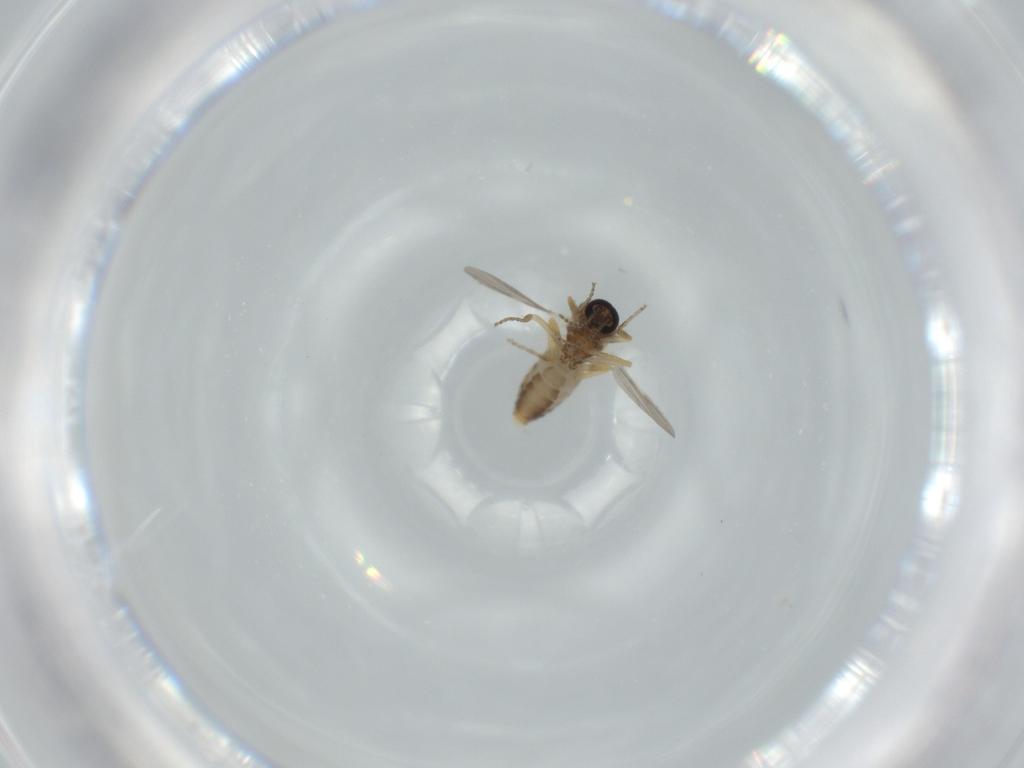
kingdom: Animalia
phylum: Arthropoda
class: Insecta
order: Diptera
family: Ceratopogonidae
